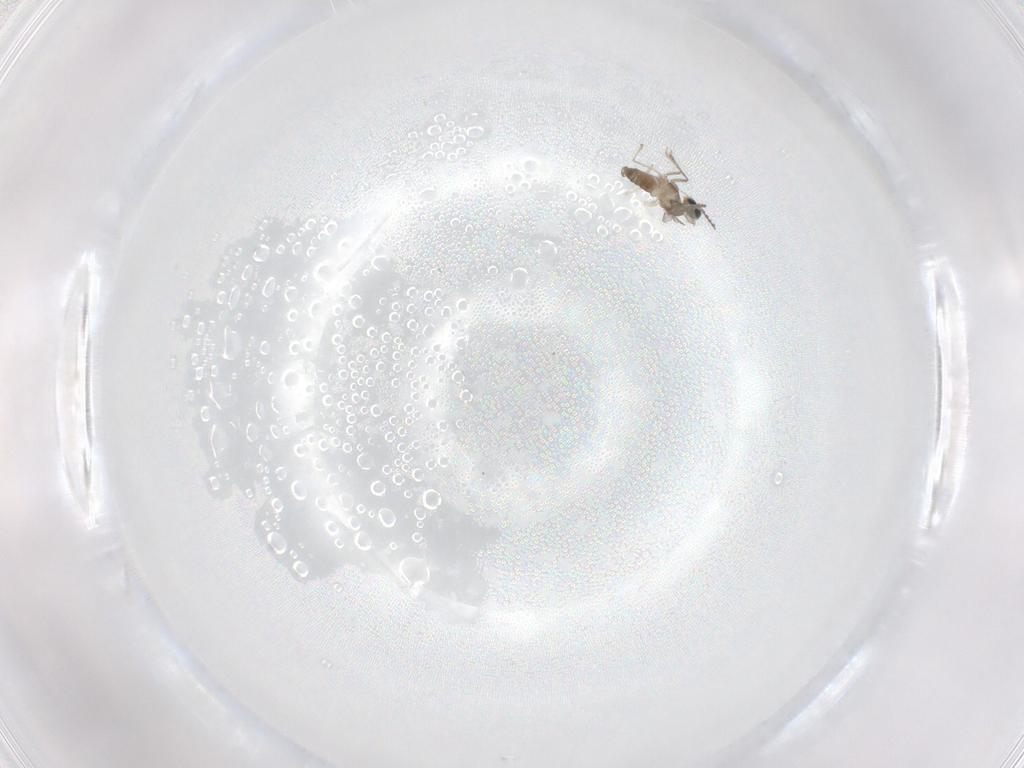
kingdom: Animalia
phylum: Arthropoda
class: Insecta
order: Diptera
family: Cecidomyiidae
